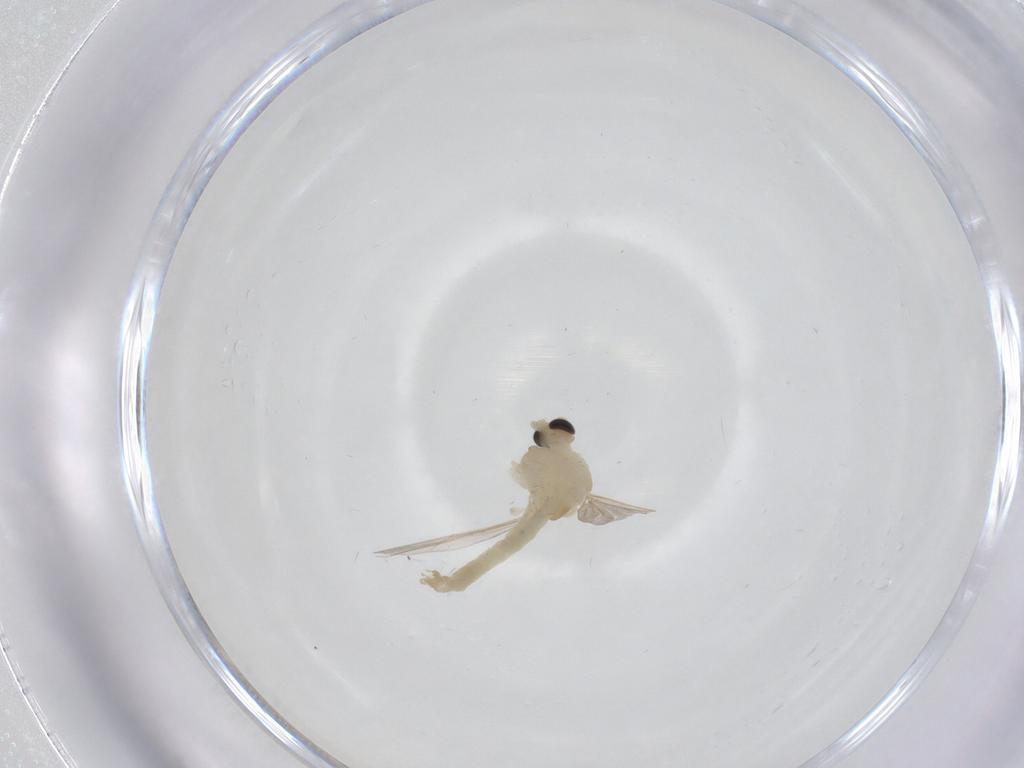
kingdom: Animalia
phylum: Arthropoda
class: Insecta
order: Diptera
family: Chironomidae
